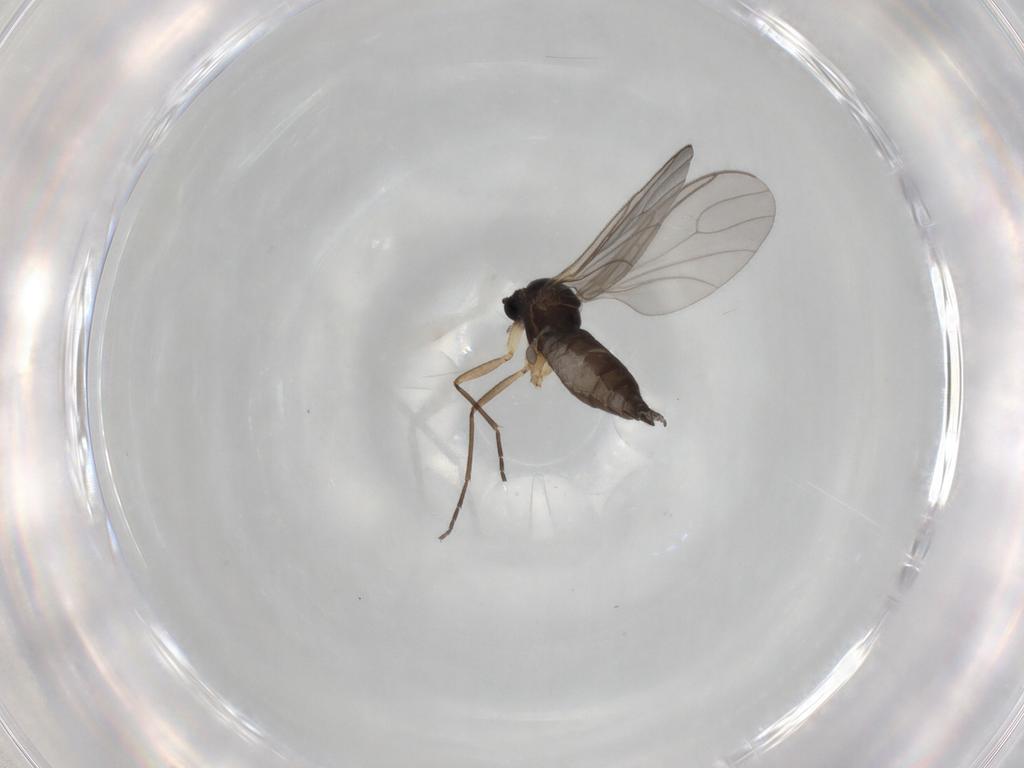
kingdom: Animalia
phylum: Arthropoda
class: Insecta
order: Diptera
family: Sciaridae
